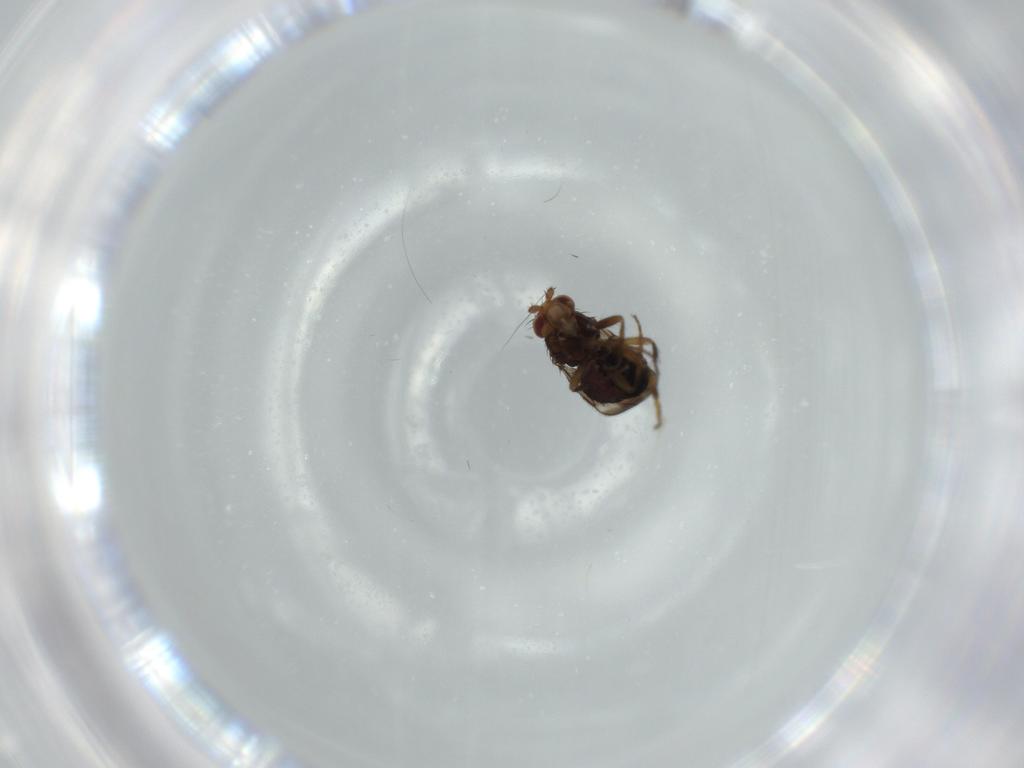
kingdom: Animalia
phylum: Arthropoda
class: Insecta
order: Diptera
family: Sphaeroceridae
